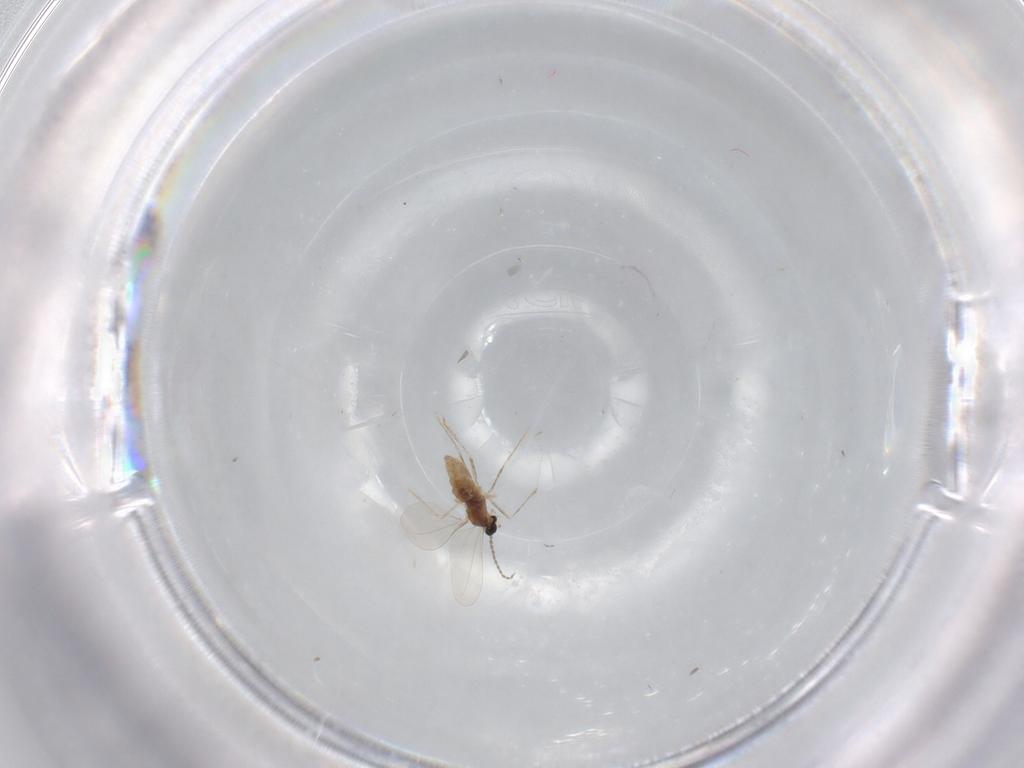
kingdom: Animalia
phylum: Arthropoda
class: Insecta
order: Diptera
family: Cecidomyiidae
